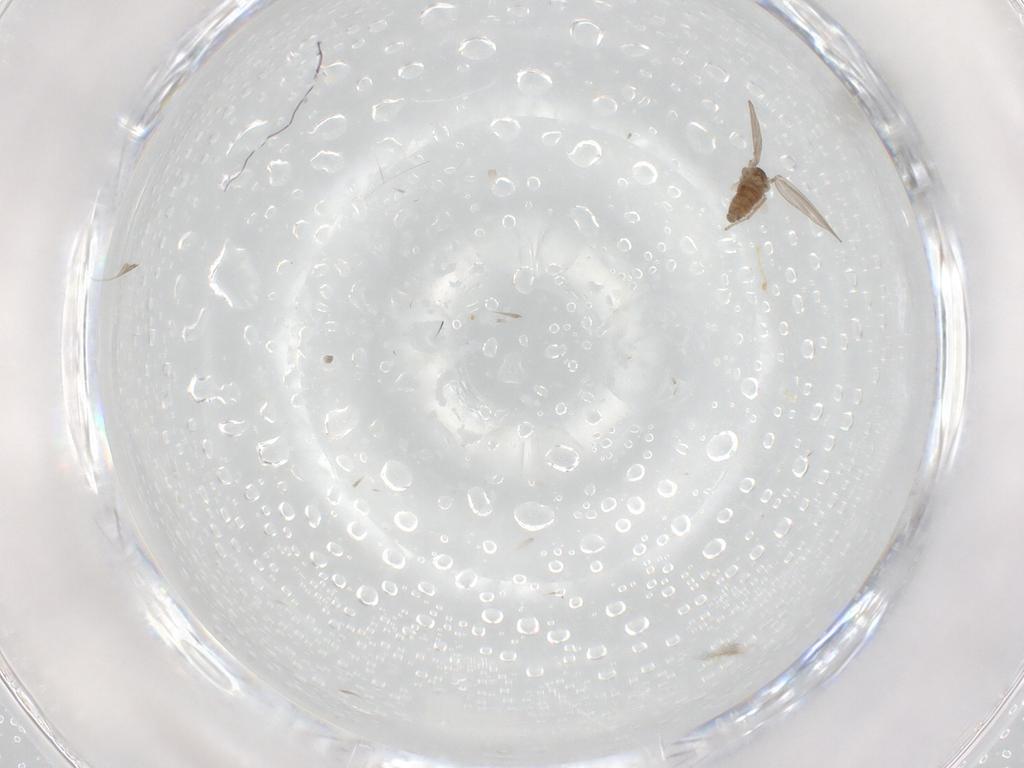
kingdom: Animalia
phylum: Arthropoda
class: Insecta
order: Diptera
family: Psychodidae
